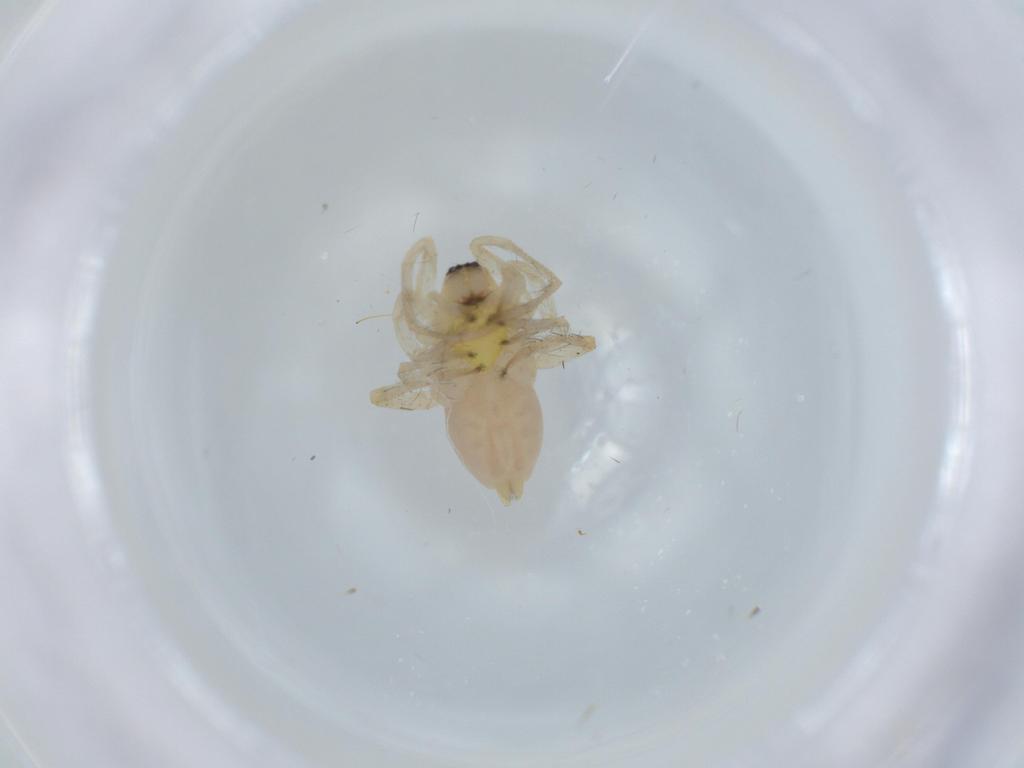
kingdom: Animalia
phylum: Arthropoda
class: Arachnida
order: Araneae
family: Anyphaenidae
